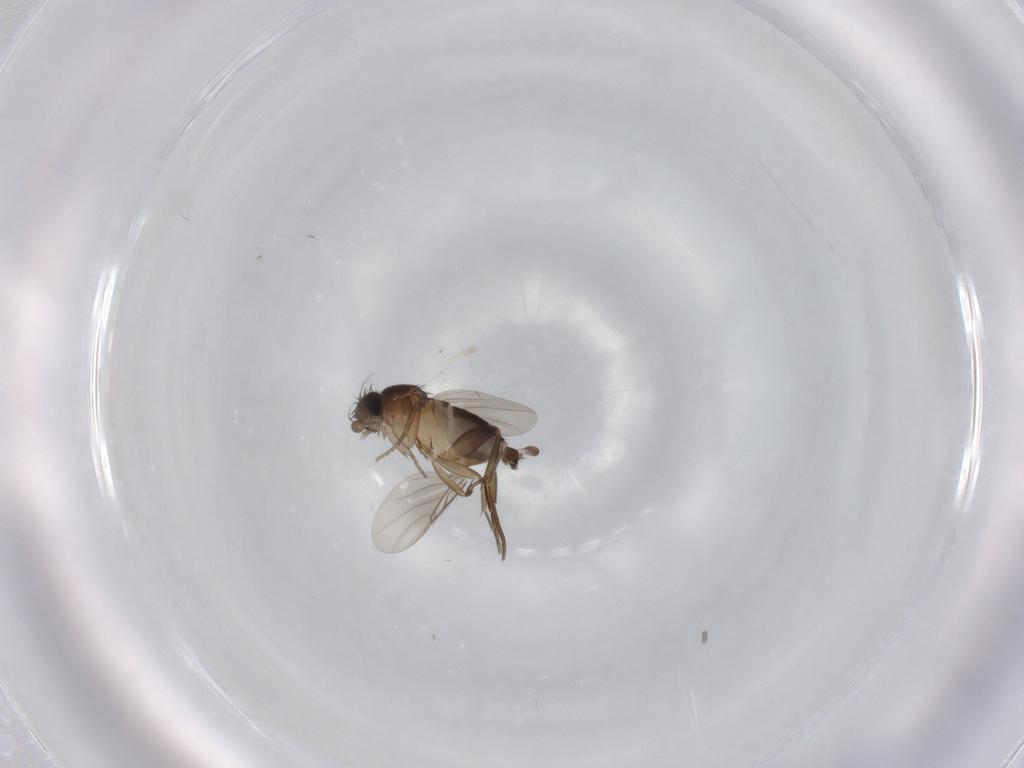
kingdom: Animalia
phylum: Arthropoda
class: Insecta
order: Diptera
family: Phoridae
